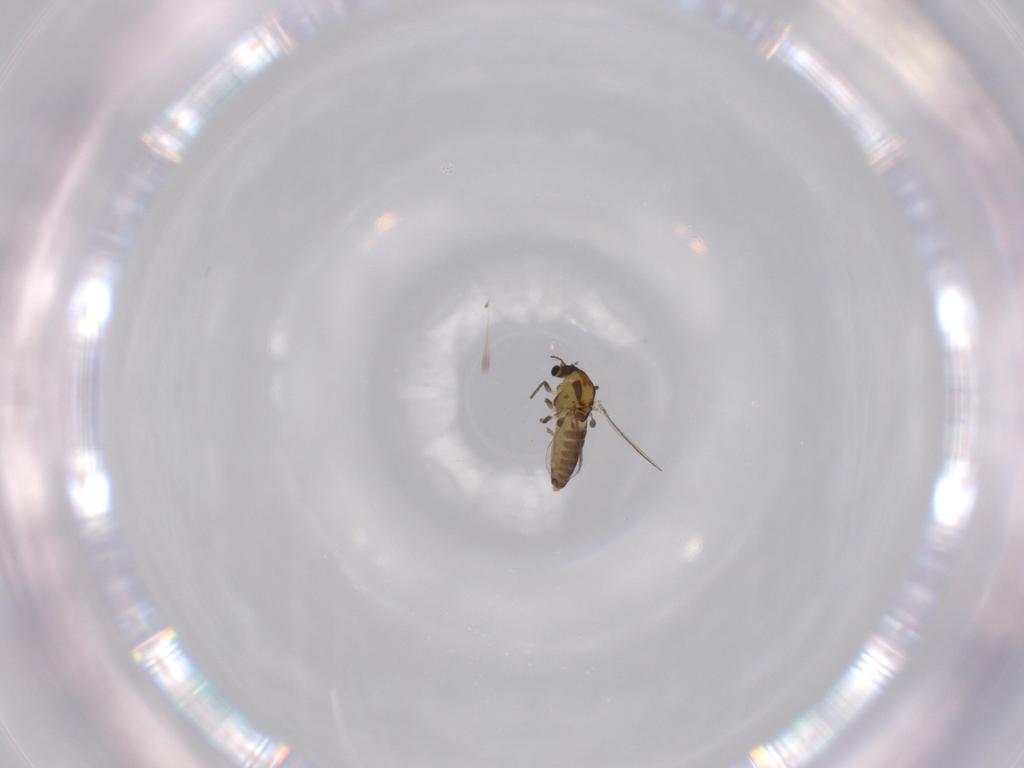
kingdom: Animalia
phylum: Arthropoda
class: Insecta
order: Diptera
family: Chironomidae
